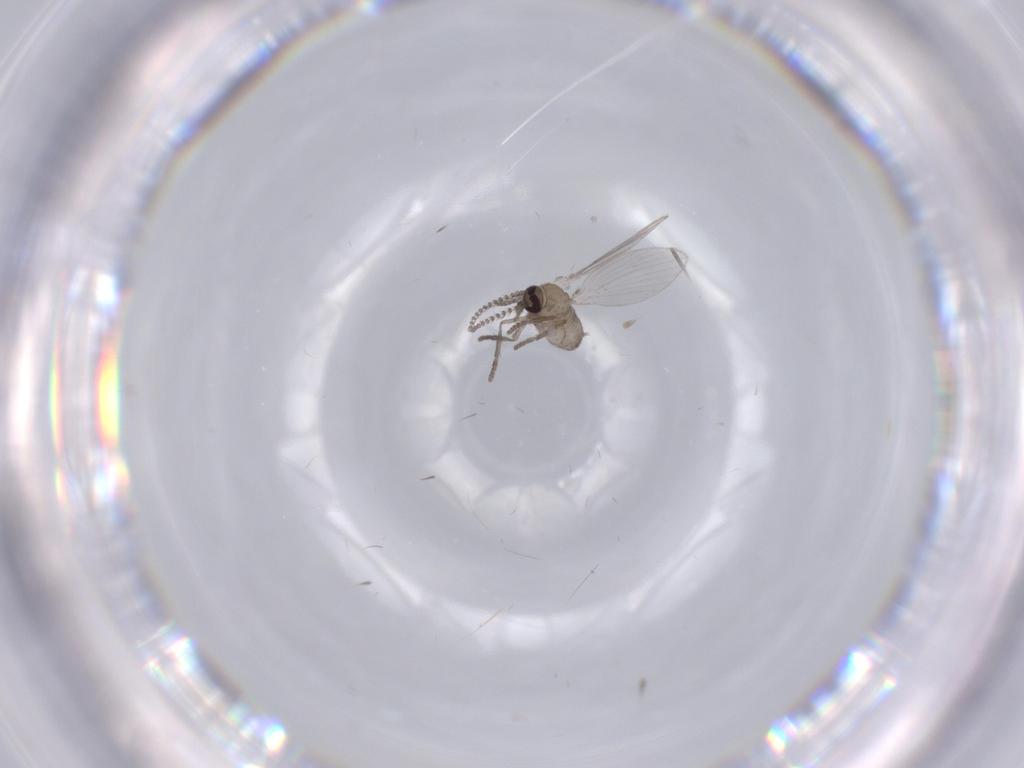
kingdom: Animalia
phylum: Arthropoda
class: Insecta
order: Diptera
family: Psychodidae
